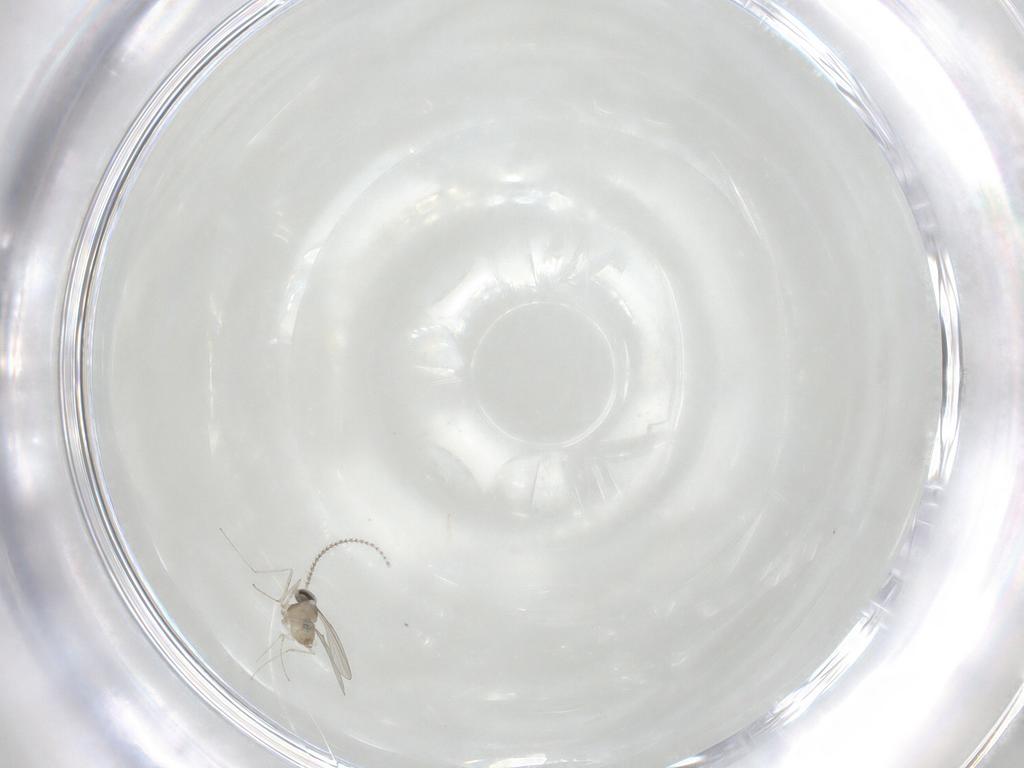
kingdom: Animalia
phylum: Arthropoda
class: Insecta
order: Diptera
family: Cecidomyiidae
